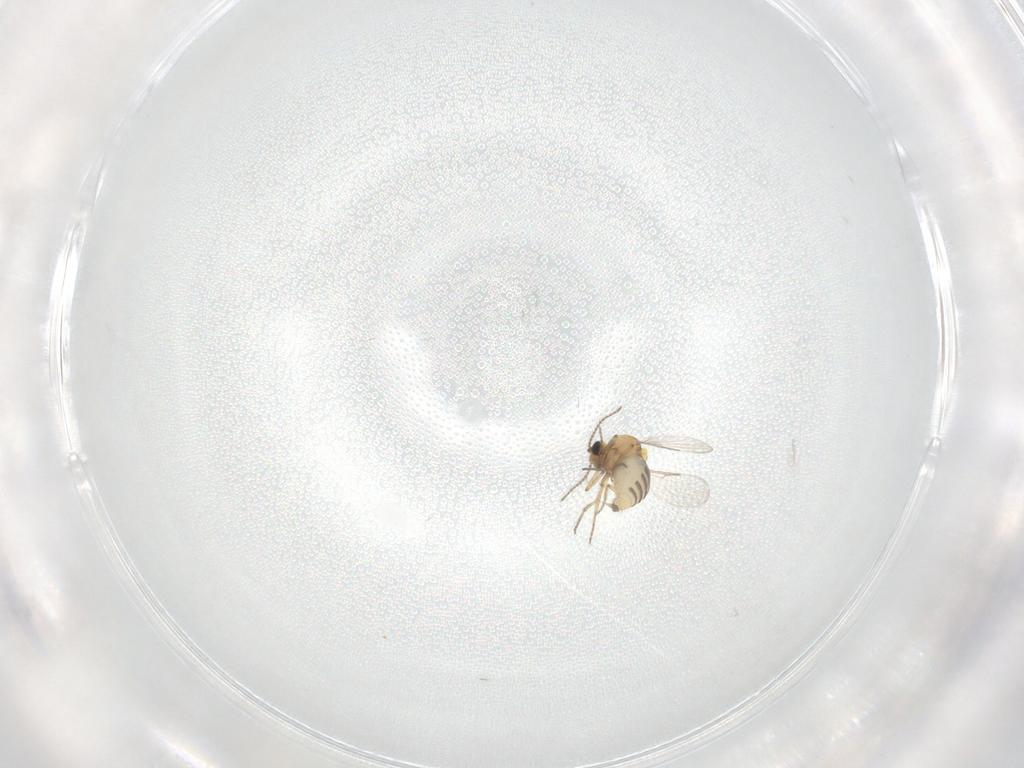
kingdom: Animalia
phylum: Arthropoda
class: Insecta
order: Diptera
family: Ceratopogonidae
